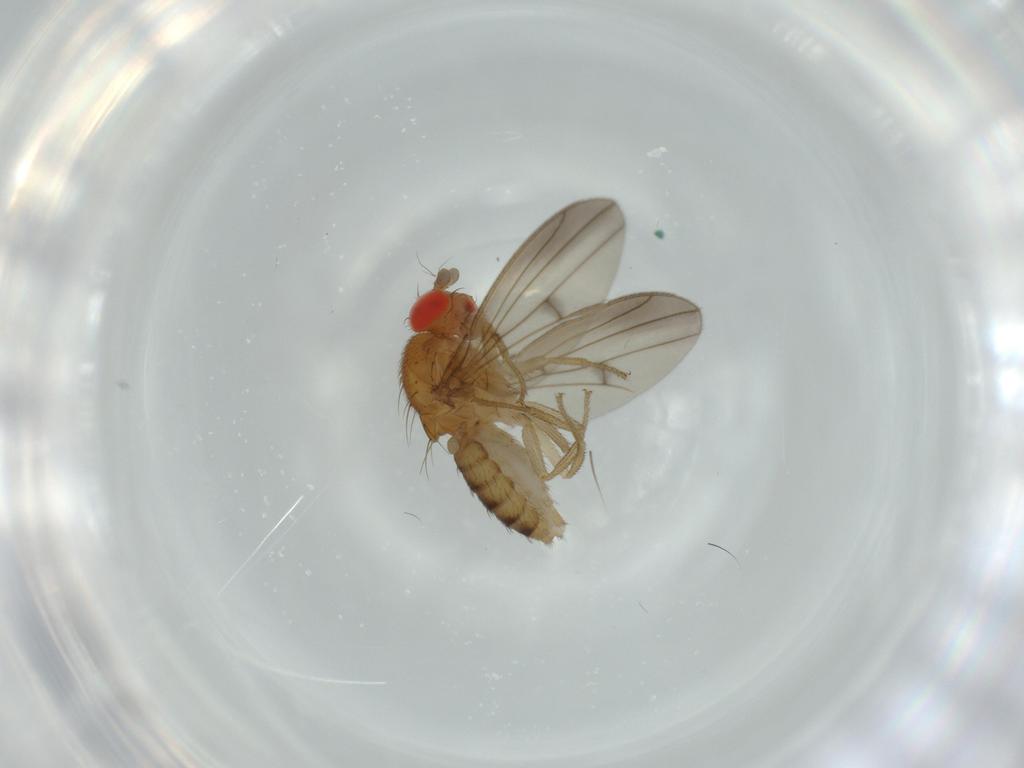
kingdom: Animalia
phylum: Arthropoda
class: Insecta
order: Diptera
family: Drosophilidae
